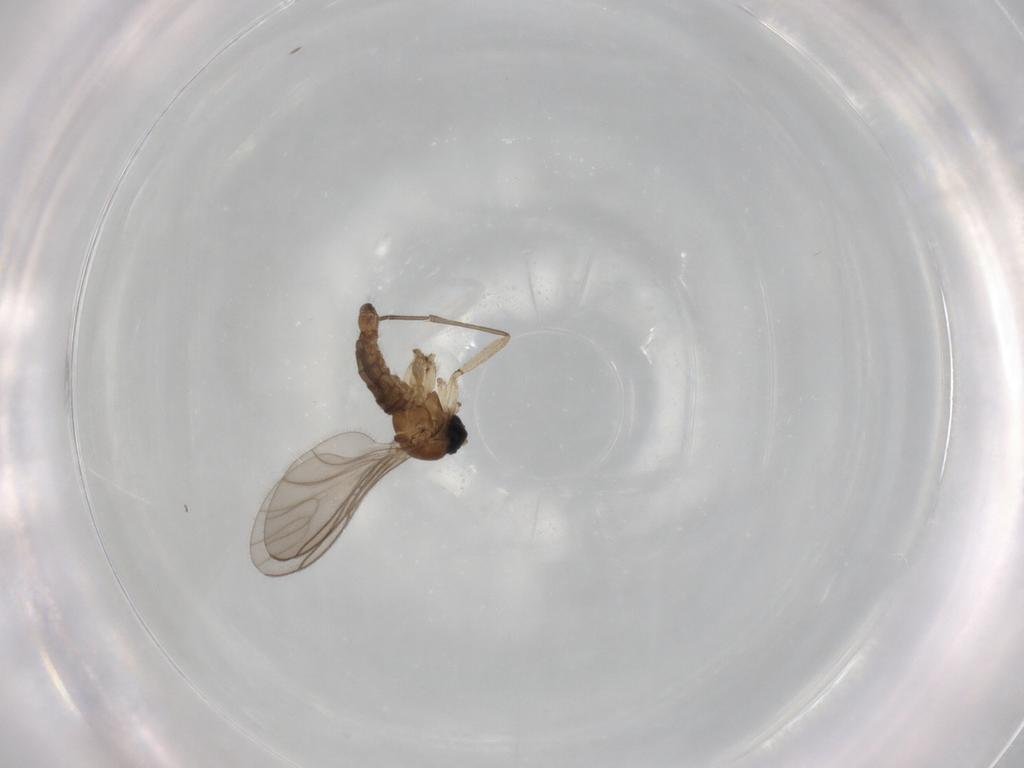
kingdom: Animalia
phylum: Arthropoda
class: Insecta
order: Diptera
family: Sciaridae
